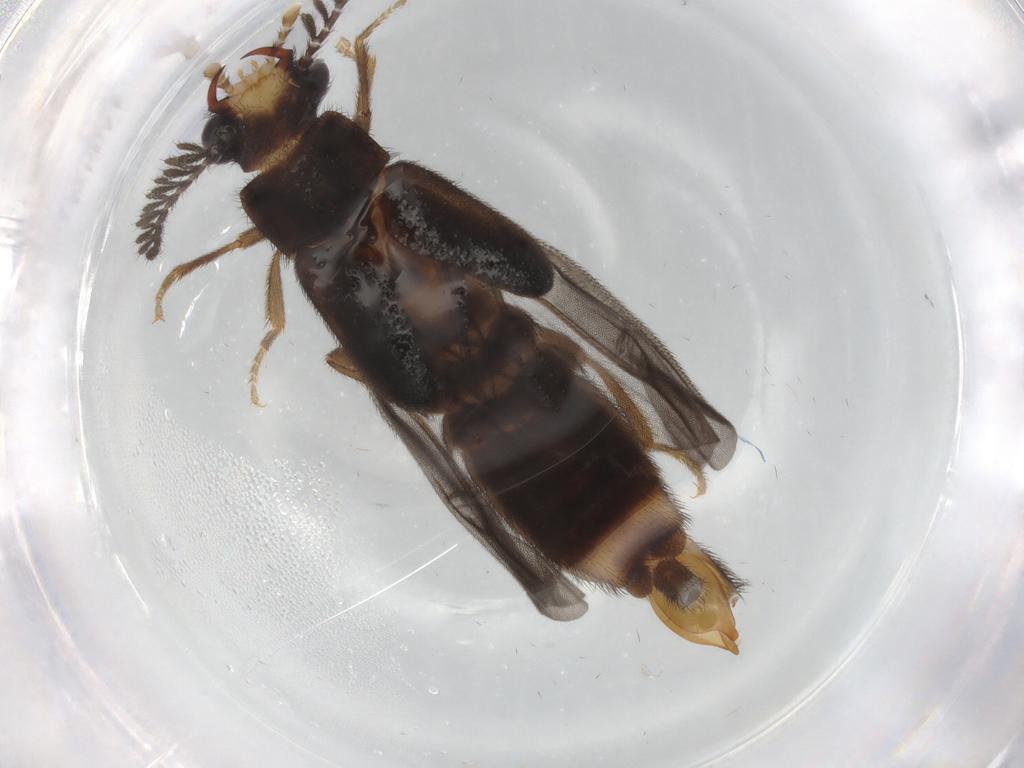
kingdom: Animalia
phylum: Arthropoda
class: Insecta
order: Coleoptera
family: Phengodidae
